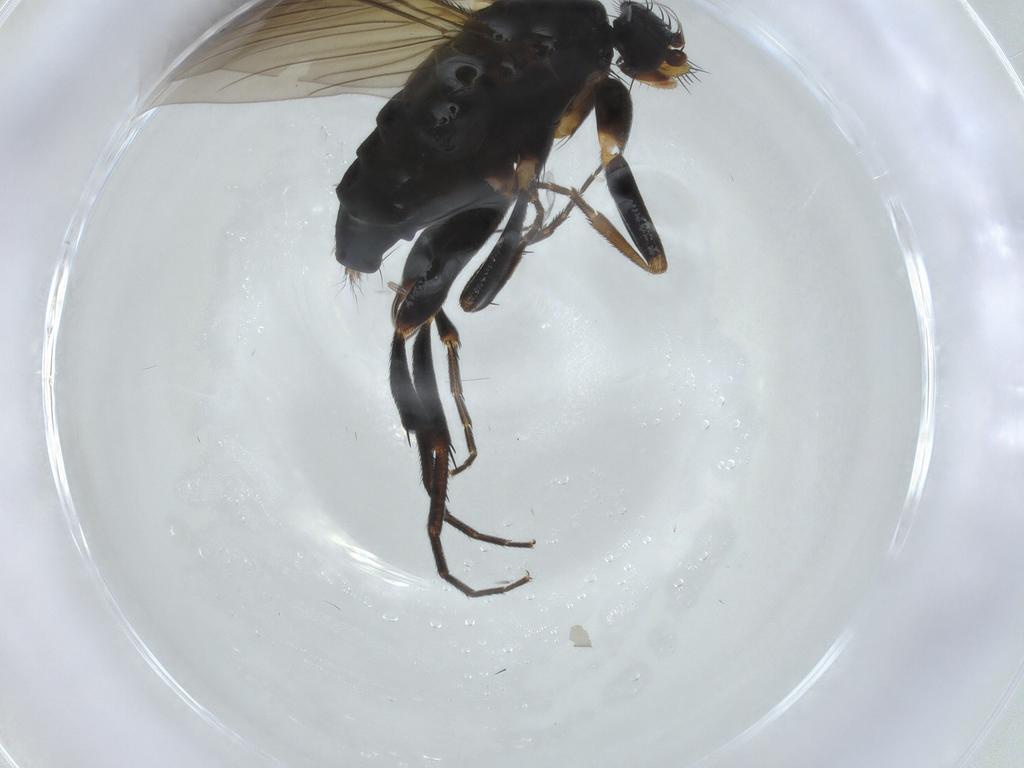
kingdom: Animalia
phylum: Arthropoda
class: Insecta
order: Diptera
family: Phoridae
